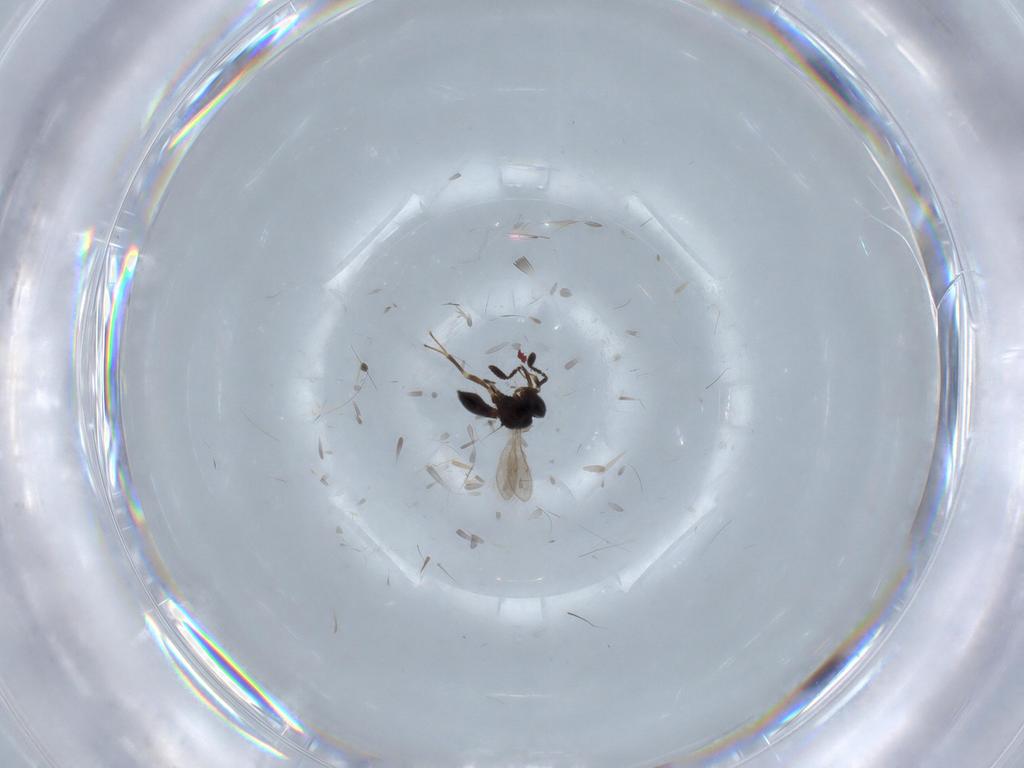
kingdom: Animalia
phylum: Arthropoda
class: Insecta
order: Hymenoptera
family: Scelionidae
